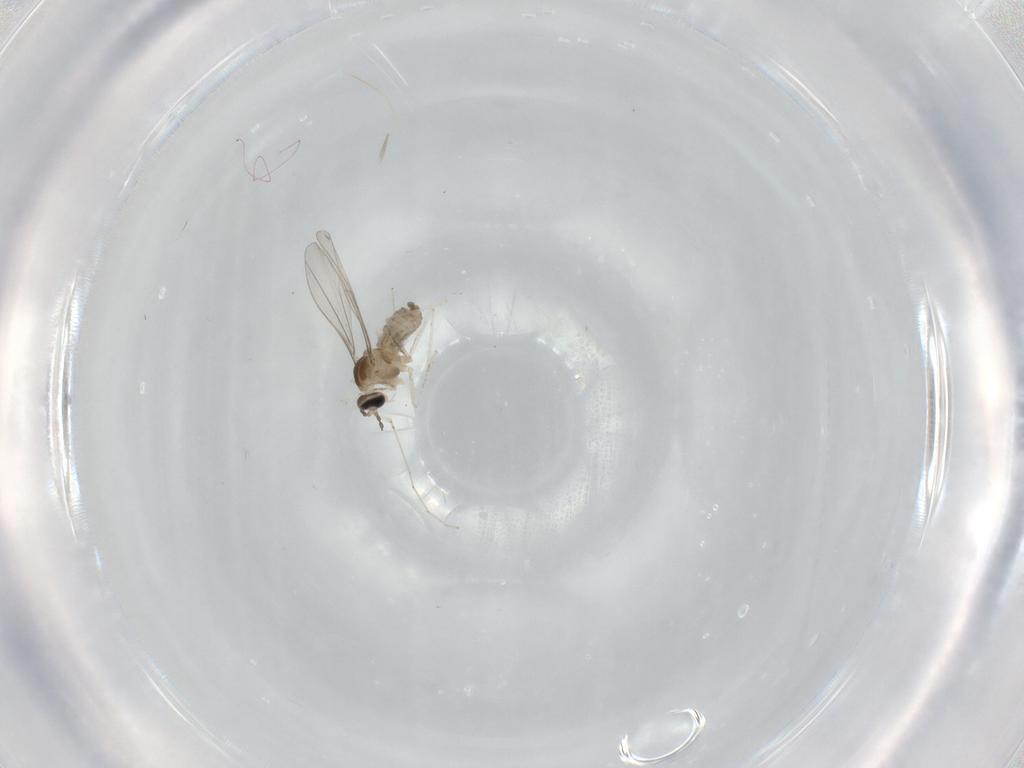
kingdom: Animalia
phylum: Arthropoda
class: Insecta
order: Diptera
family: Cecidomyiidae
